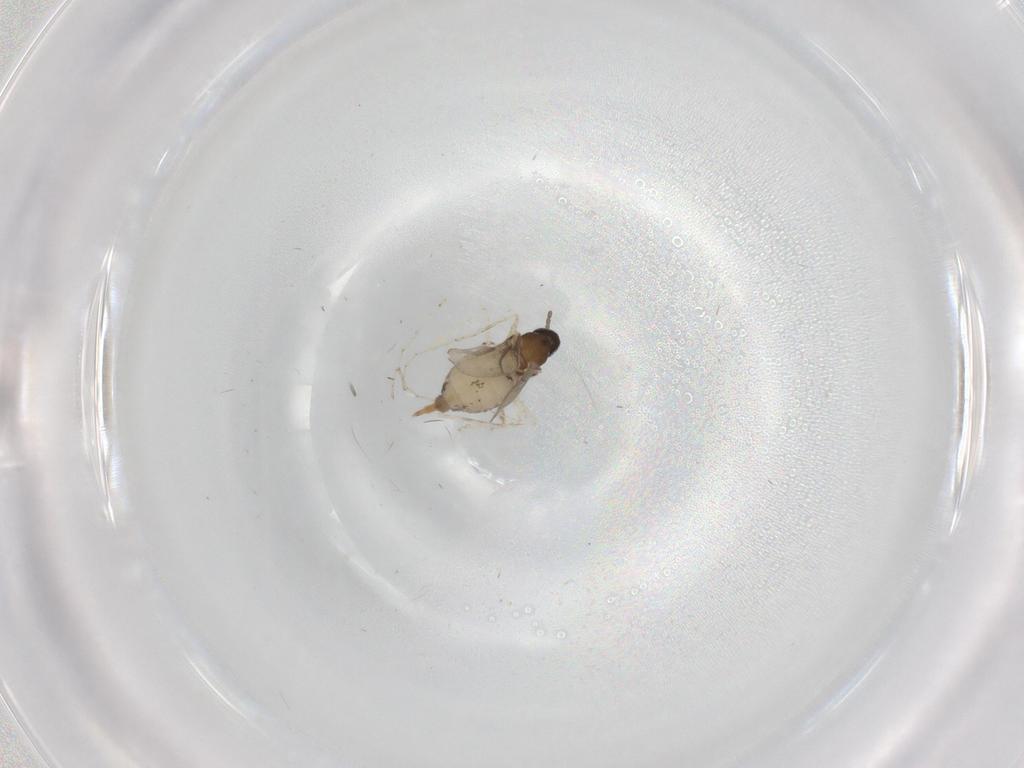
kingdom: Animalia
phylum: Arthropoda
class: Insecta
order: Diptera
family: Cecidomyiidae
